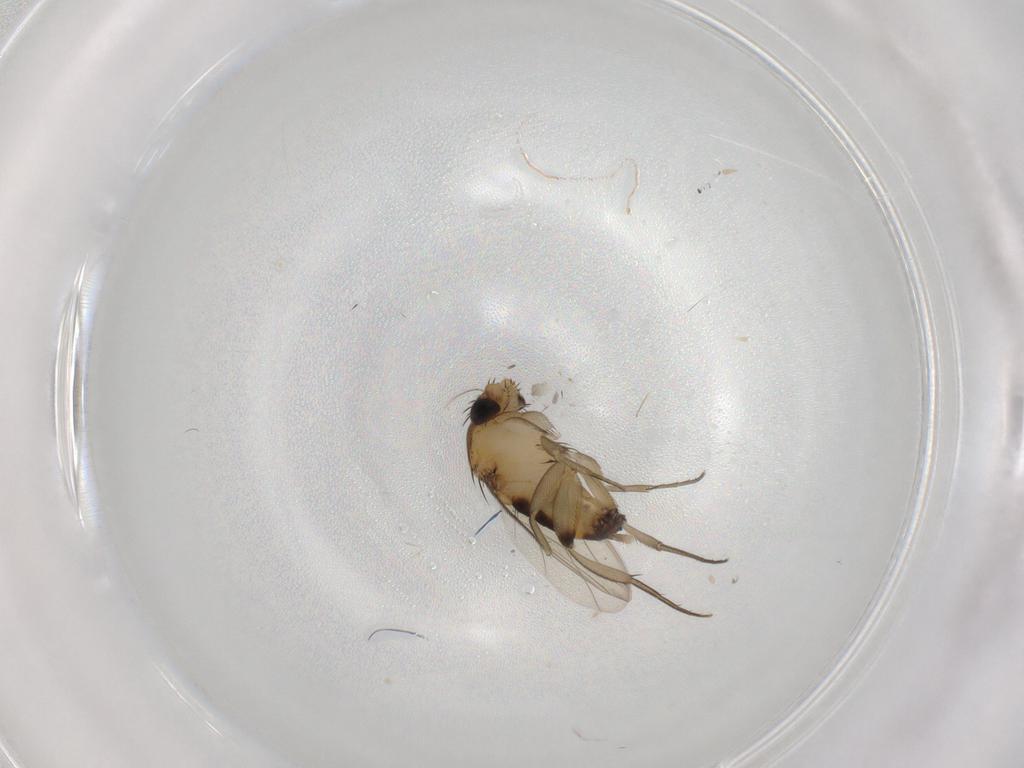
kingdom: Animalia
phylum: Arthropoda
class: Insecta
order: Diptera
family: Phoridae
